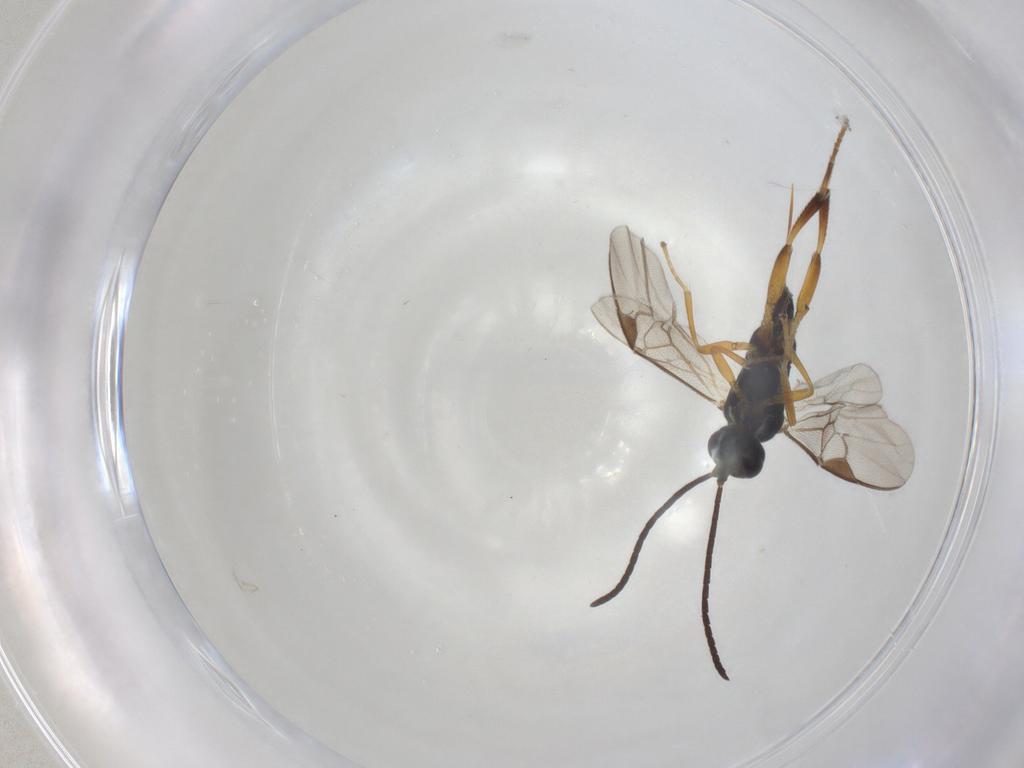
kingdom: Animalia
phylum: Arthropoda
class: Insecta
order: Hymenoptera
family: Braconidae
